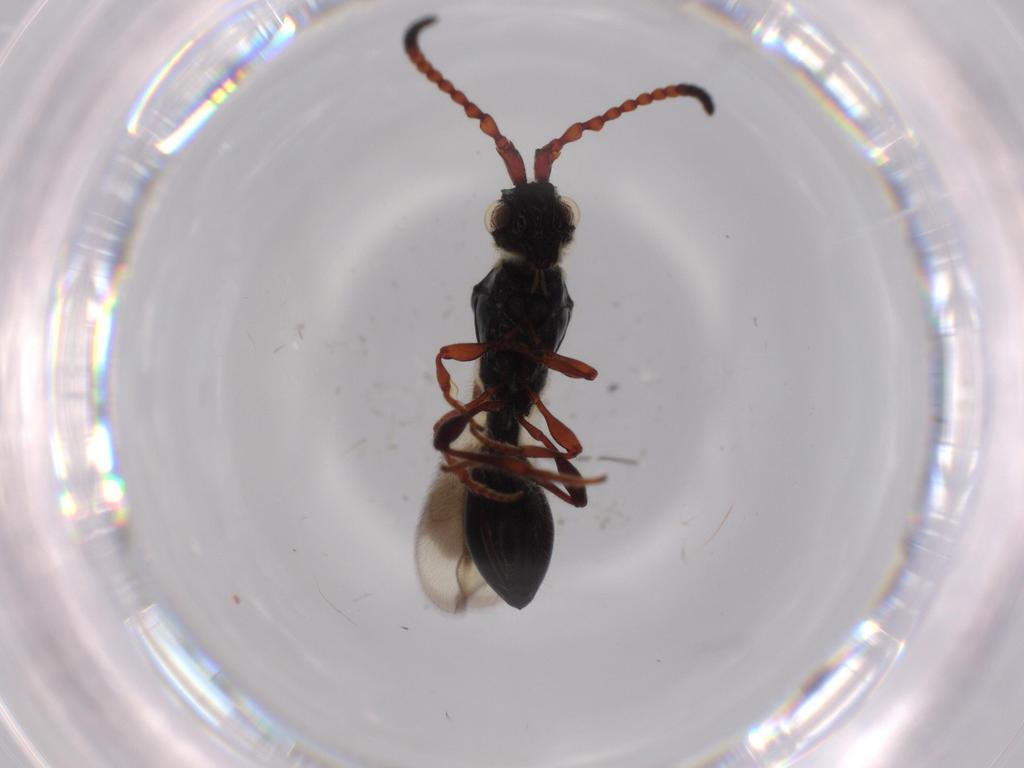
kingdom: Animalia
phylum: Arthropoda
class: Insecta
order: Hymenoptera
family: Diapriidae
